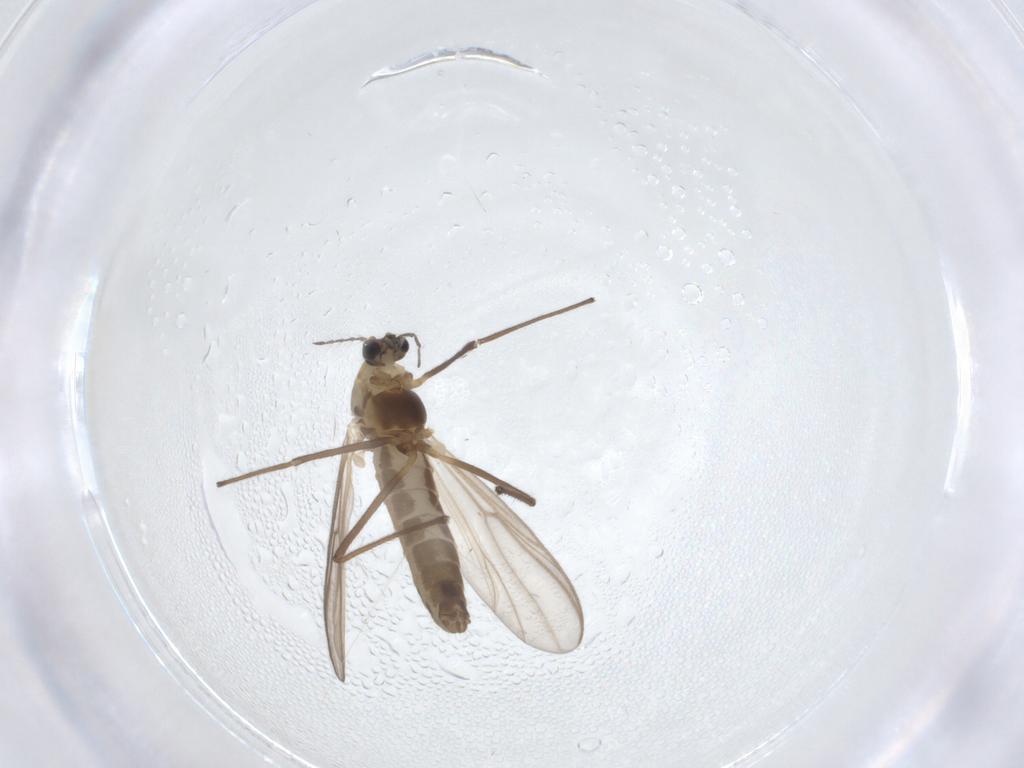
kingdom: Animalia
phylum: Arthropoda
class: Insecta
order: Diptera
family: Chironomidae
